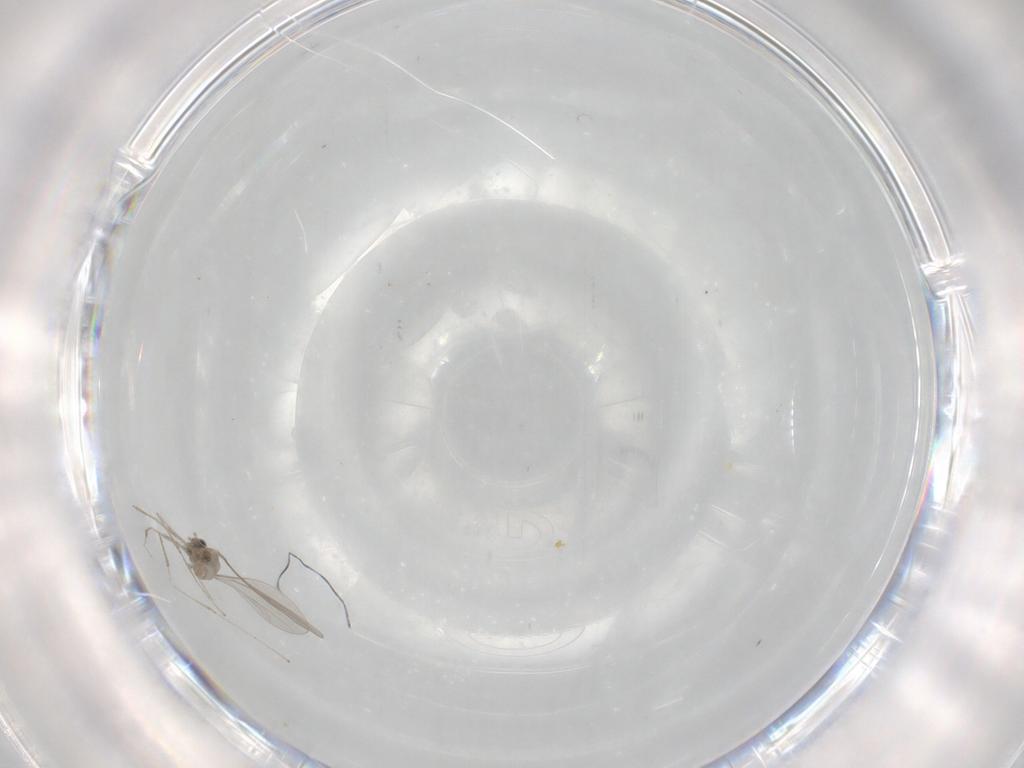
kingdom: Animalia
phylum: Arthropoda
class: Insecta
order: Diptera
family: Cecidomyiidae
